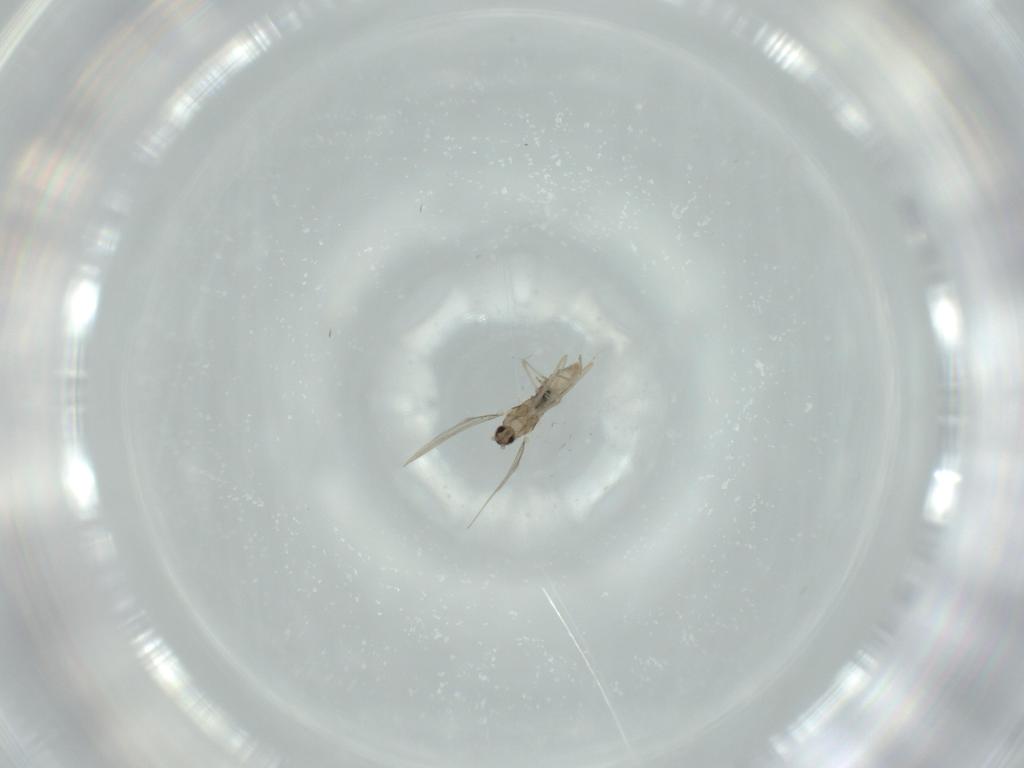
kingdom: Animalia
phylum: Arthropoda
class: Insecta
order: Diptera
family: Phoridae
